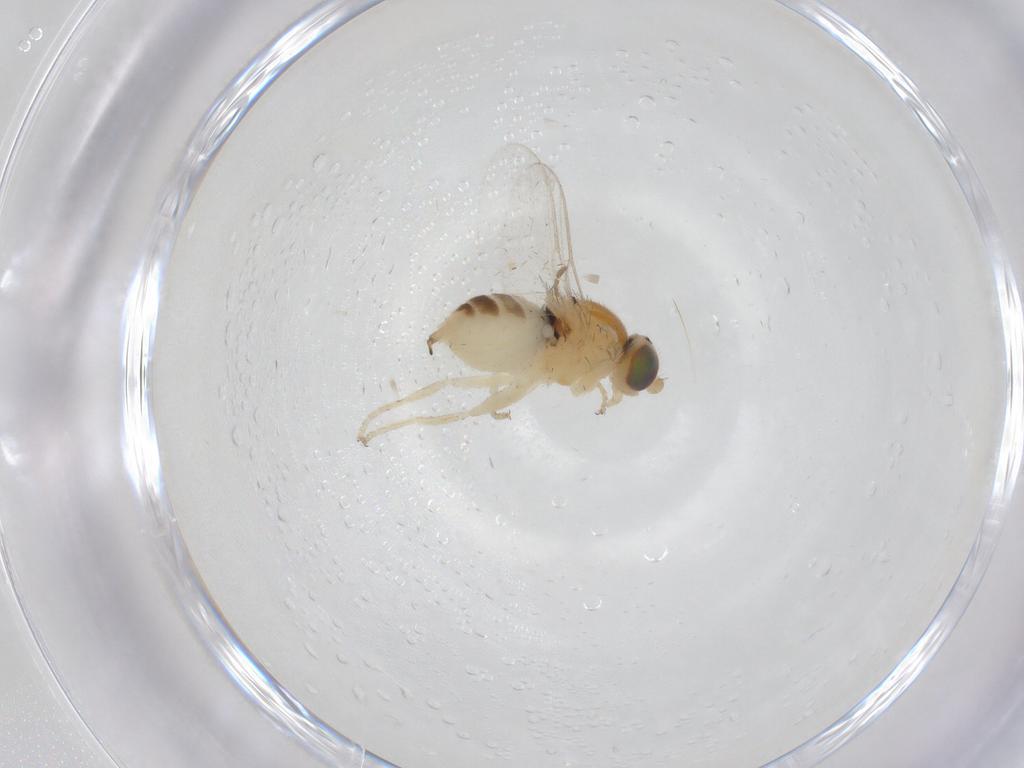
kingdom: Animalia
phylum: Arthropoda
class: Insecta
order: Diptera
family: Chloropidae
